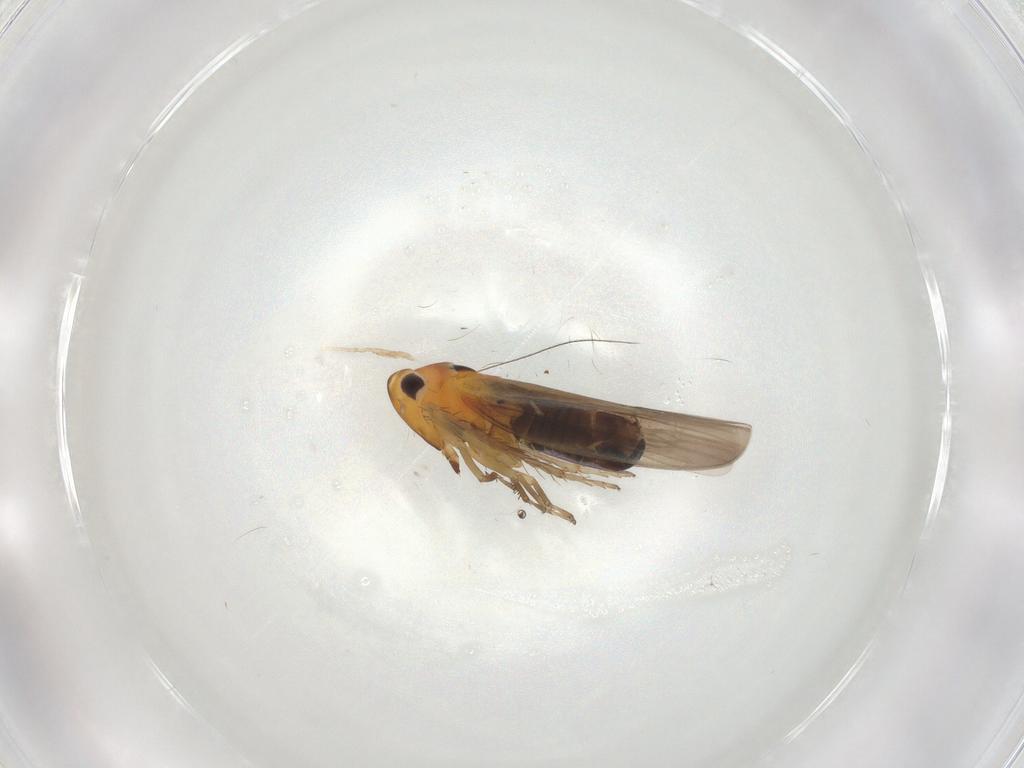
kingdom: Animalia
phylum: Arthropoda
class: Insecta
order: Hemiptera
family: Cicadellidae
